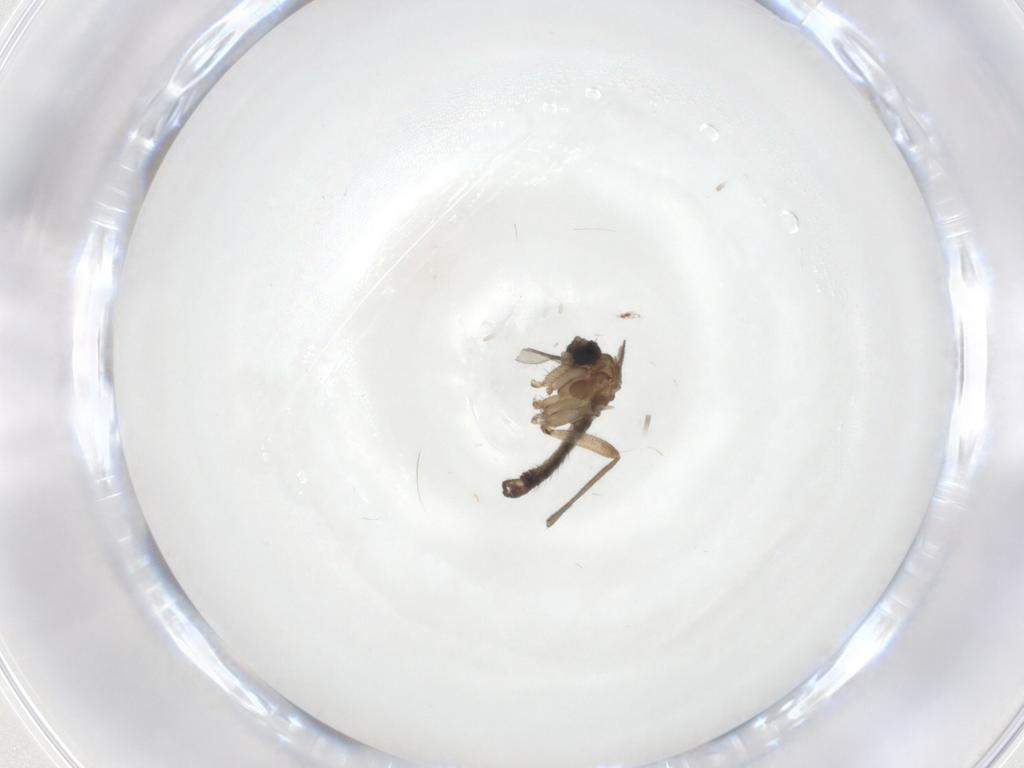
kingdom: Animalia
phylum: Arthropoda
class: Insecta
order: Diptera
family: Sciaridae
